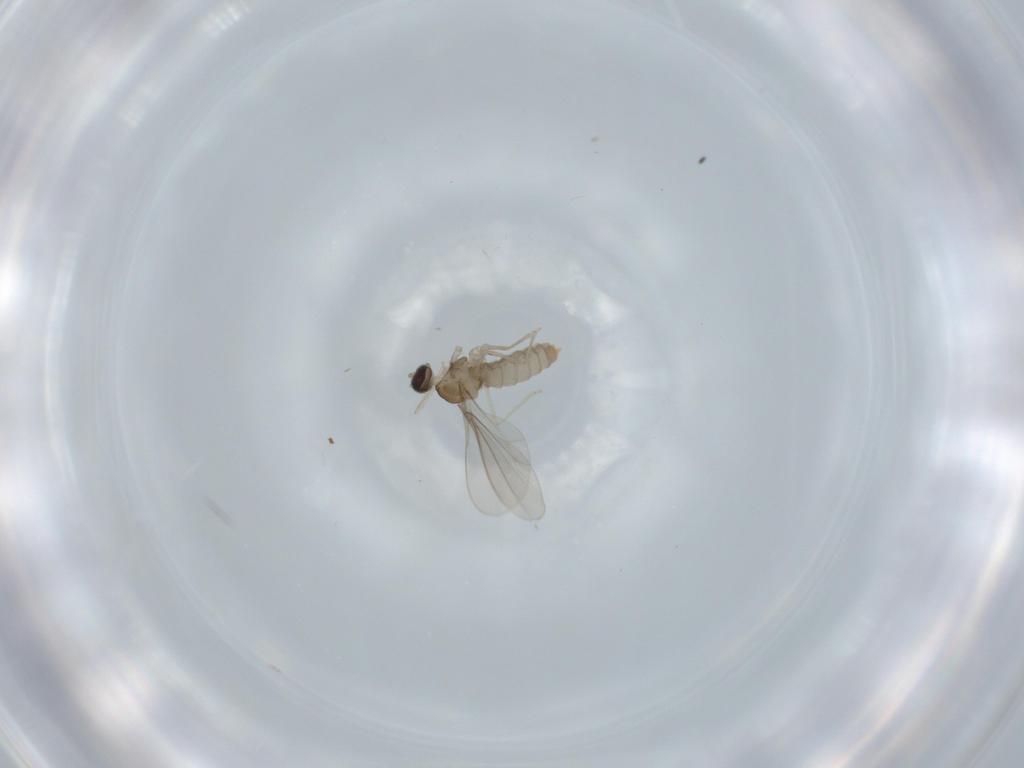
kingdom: Animalia
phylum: Arthropoda
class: Insecta
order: Diptera
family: Cecidomyiidae
